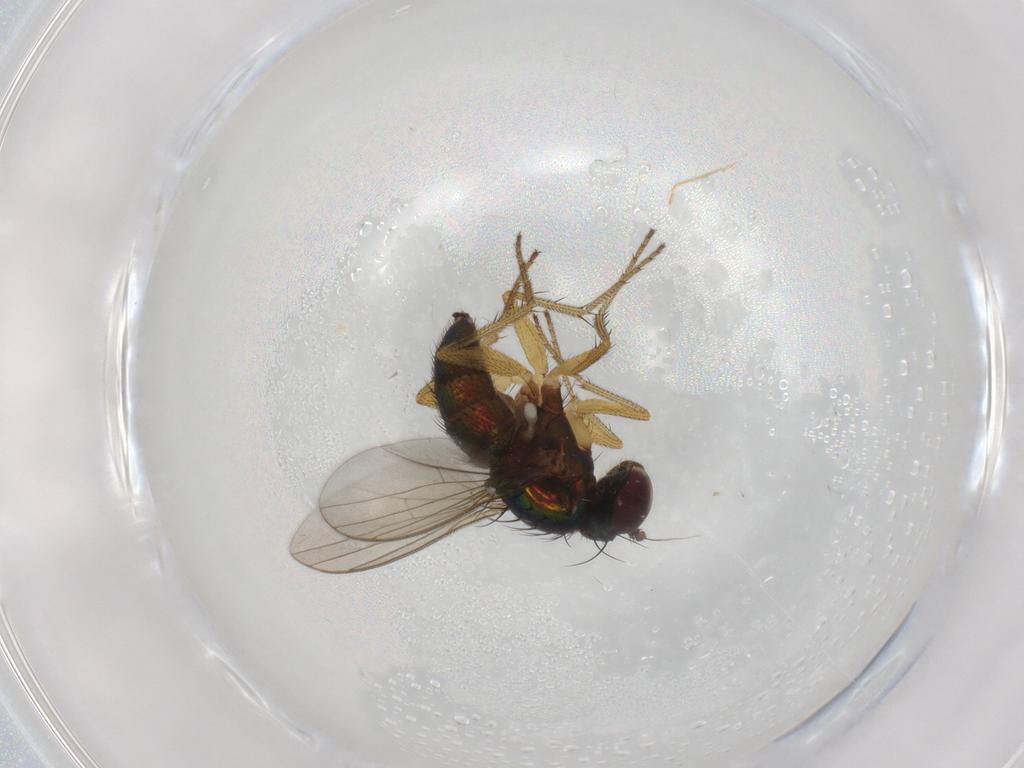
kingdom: Animalia
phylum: Arthropoda
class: Insecta
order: Diptera
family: Dolichopodidae
